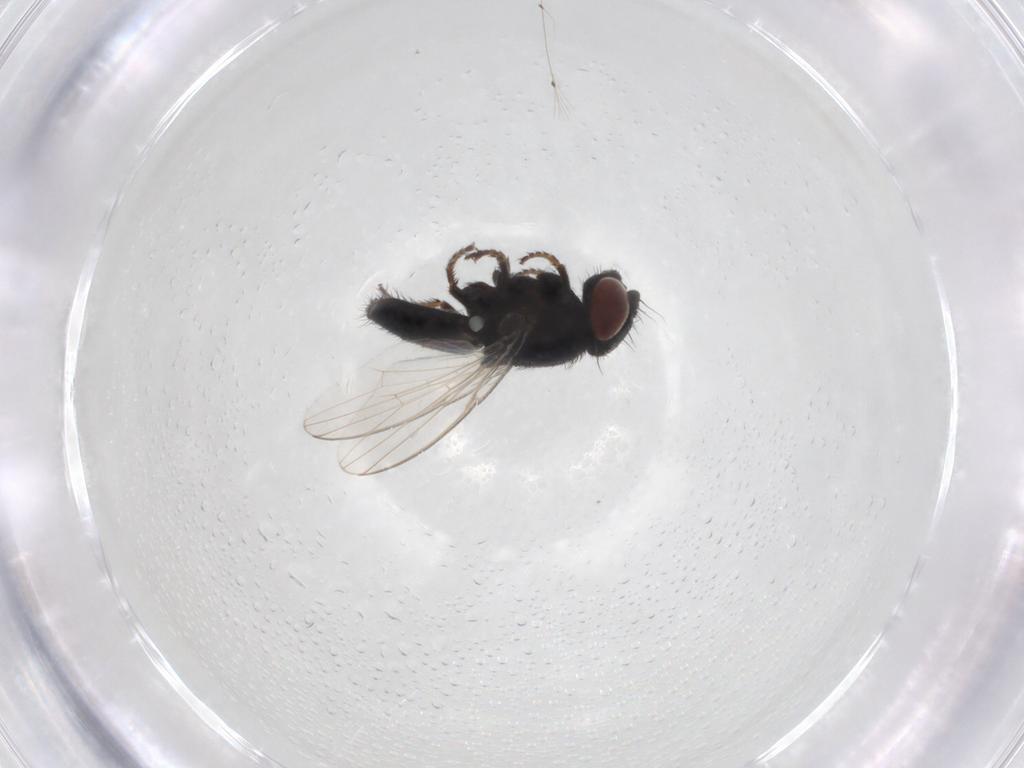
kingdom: Animalia
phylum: Arthropoda
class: Insecta
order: Diptera
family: Milichiidae
